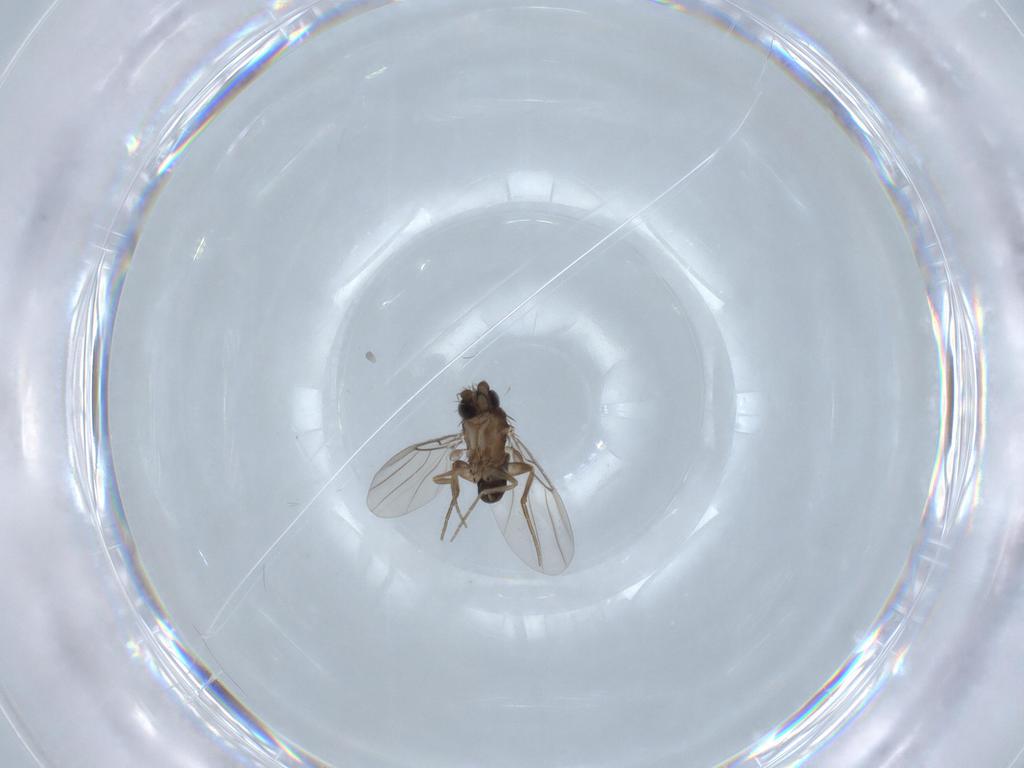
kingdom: Animalia
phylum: Arthropoda
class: Insecta
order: Diptera
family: Phoridae
